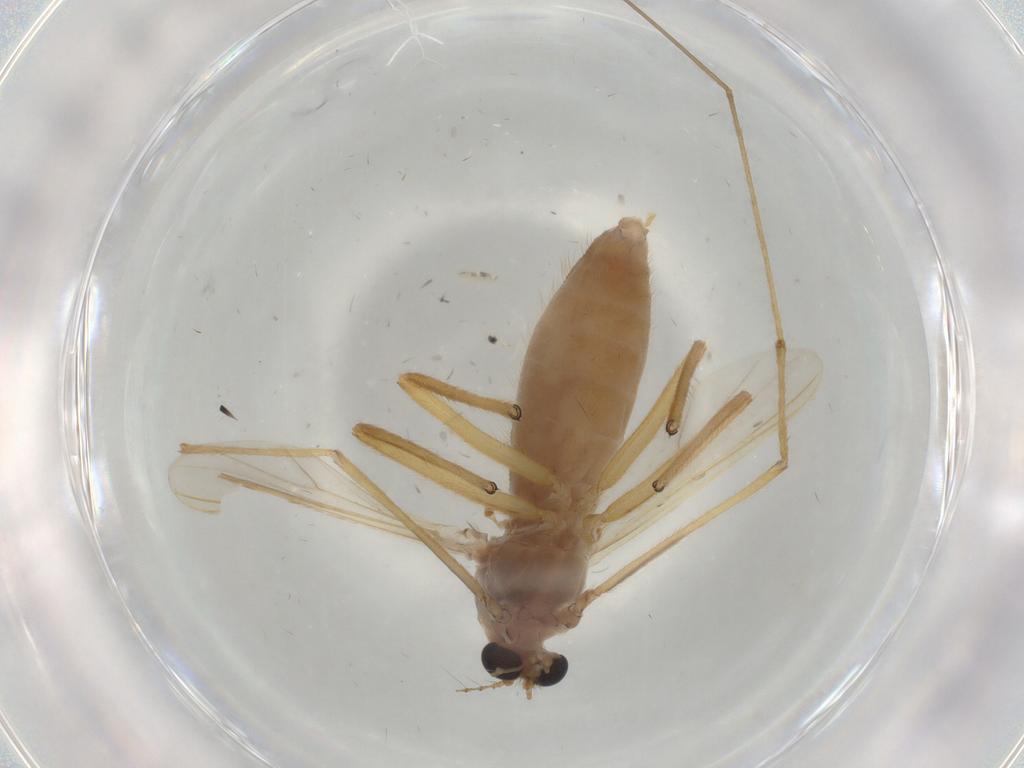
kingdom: Animalia
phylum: Arthropoda
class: Insecta
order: Diptera
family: Chironomidae
